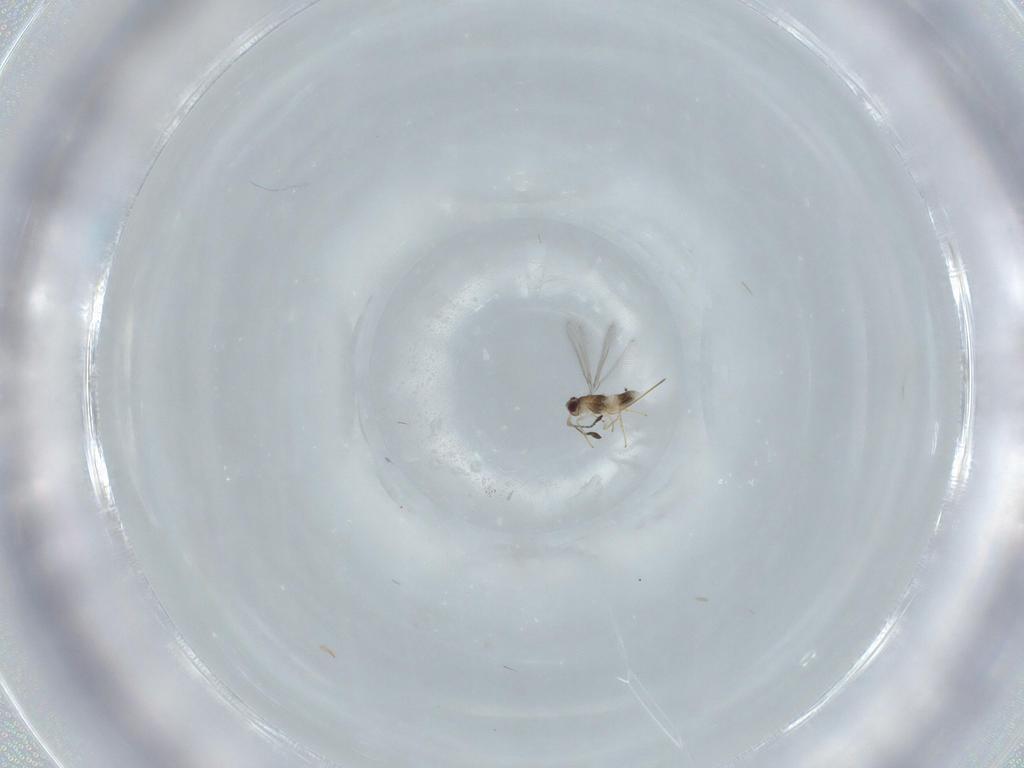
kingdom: Animalia
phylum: Arthropoda
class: Insecta
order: Hymenoptera
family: Mymaridae
